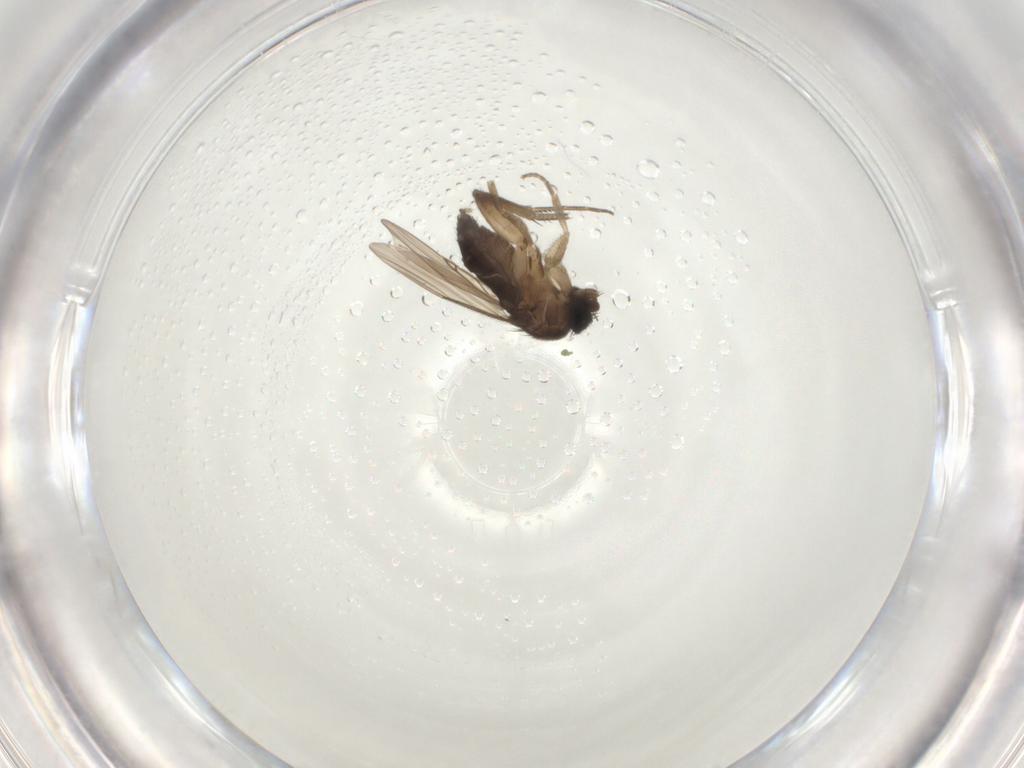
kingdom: Animalia
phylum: Arthropoda
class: Insecta
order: Diptera
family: Phoridae
